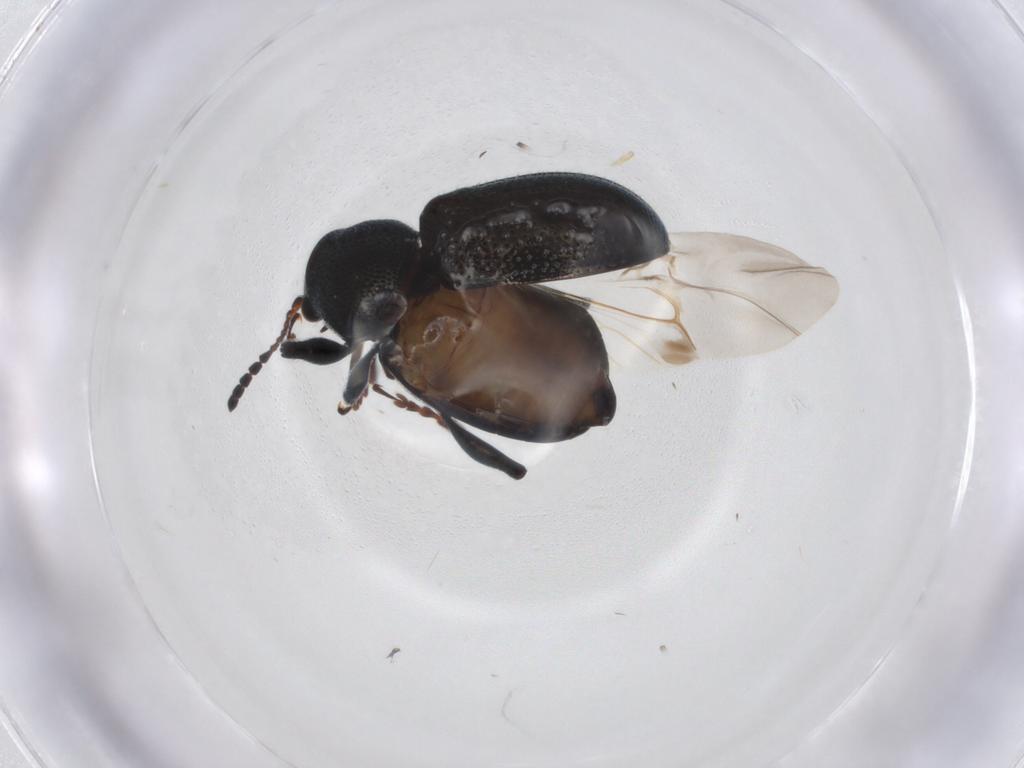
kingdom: Animalia
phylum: Arthropoda
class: Insecta
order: Coleoptera
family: Chrysomelidae
